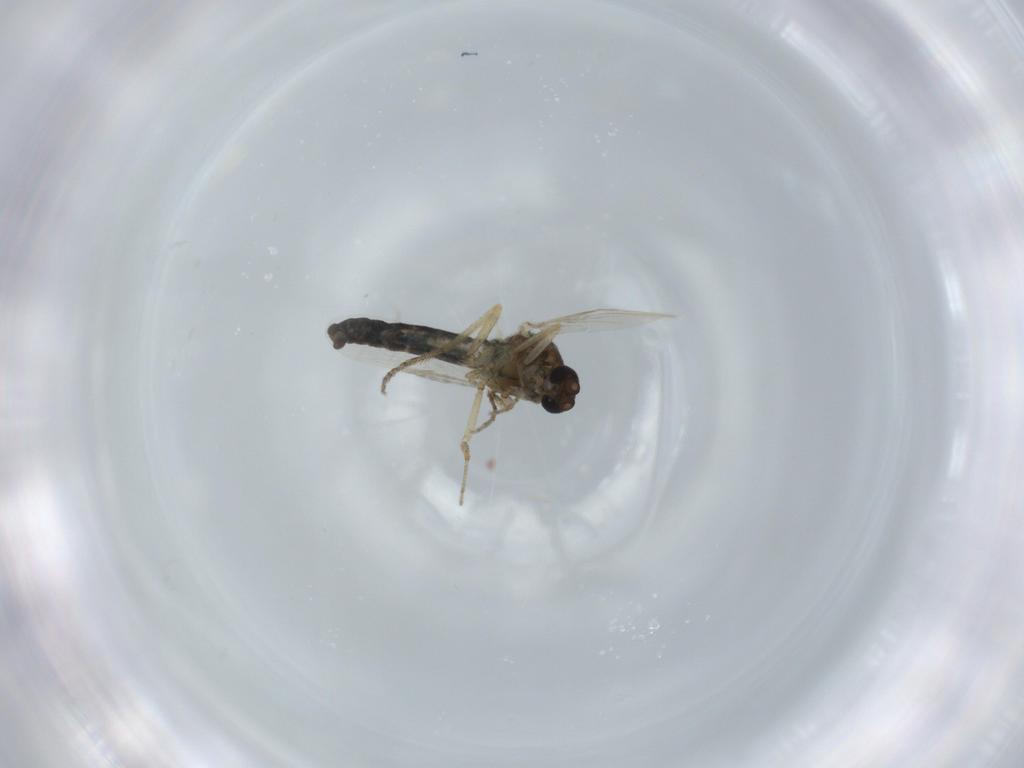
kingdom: Animalia
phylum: Arthropoda
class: Insecta
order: Diptera
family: Ceratopogonidae
